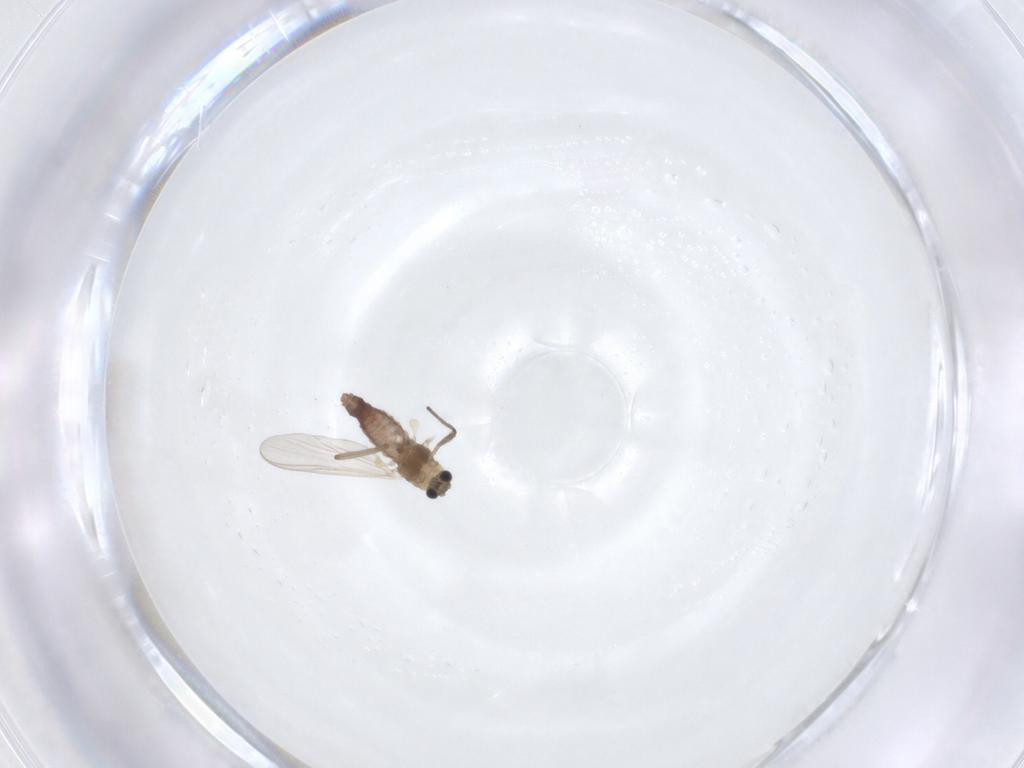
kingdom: Animalia
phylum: Arthropoda
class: Insecta
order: Diptera
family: Chironomidae
